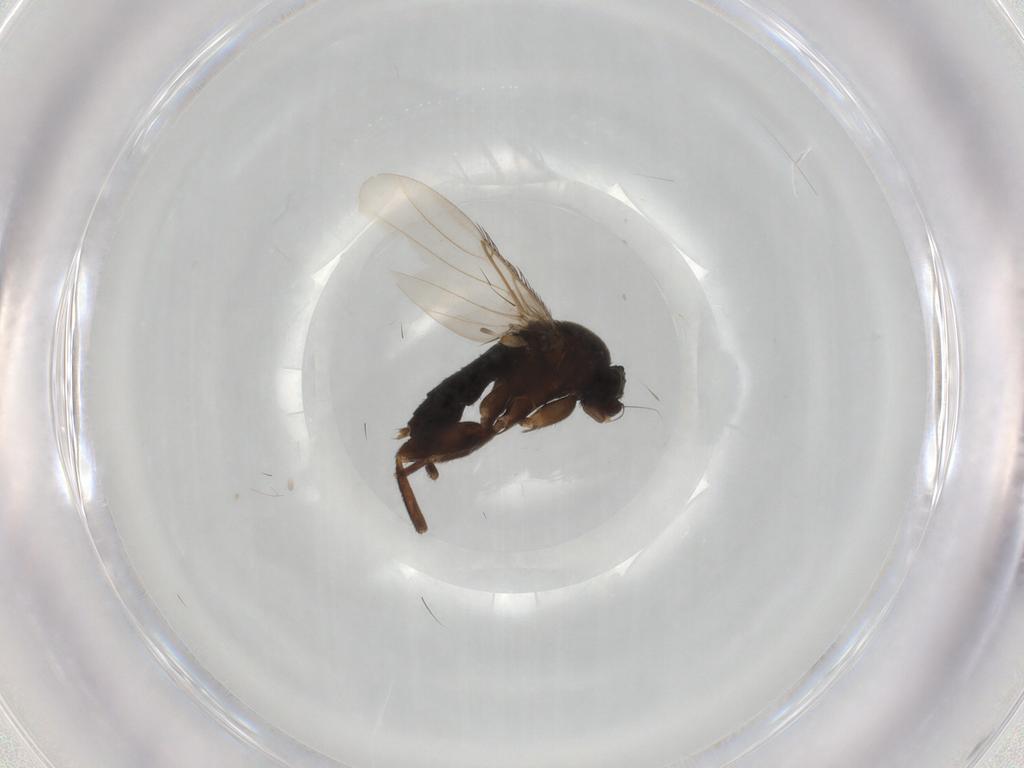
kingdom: Animalia
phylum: Arthropoda
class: Insecta
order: Diptera
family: Phoridae
